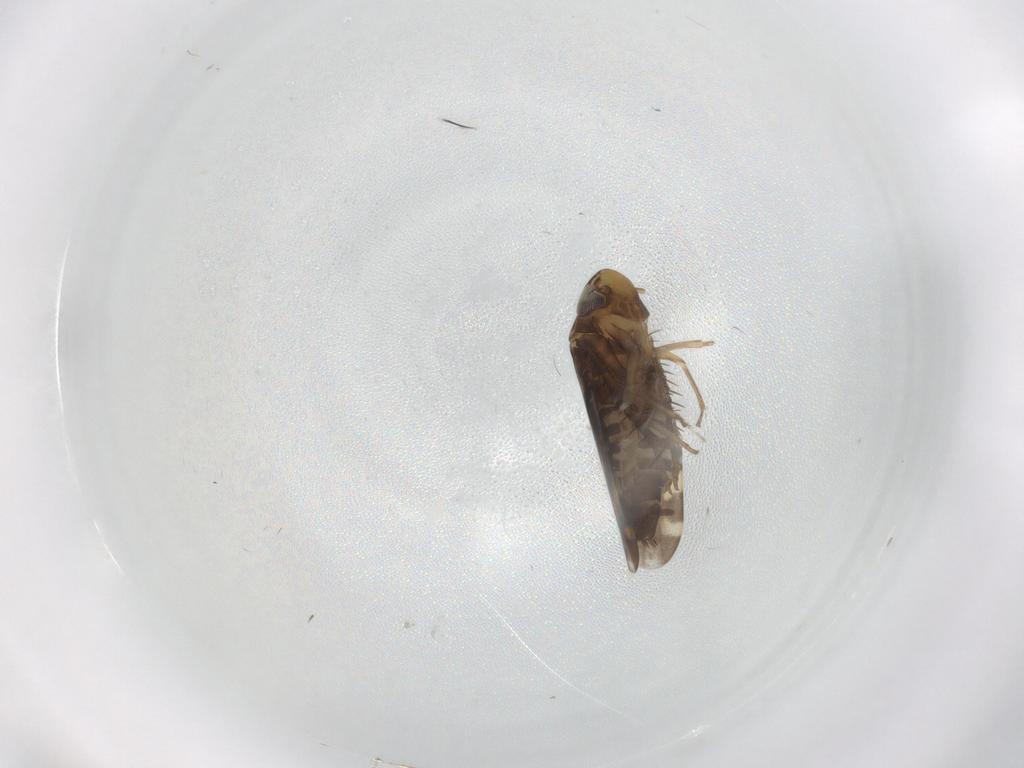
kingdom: Animalia
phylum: Arthropoda
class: Insecta
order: Hemiptera
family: Cicadellidae
